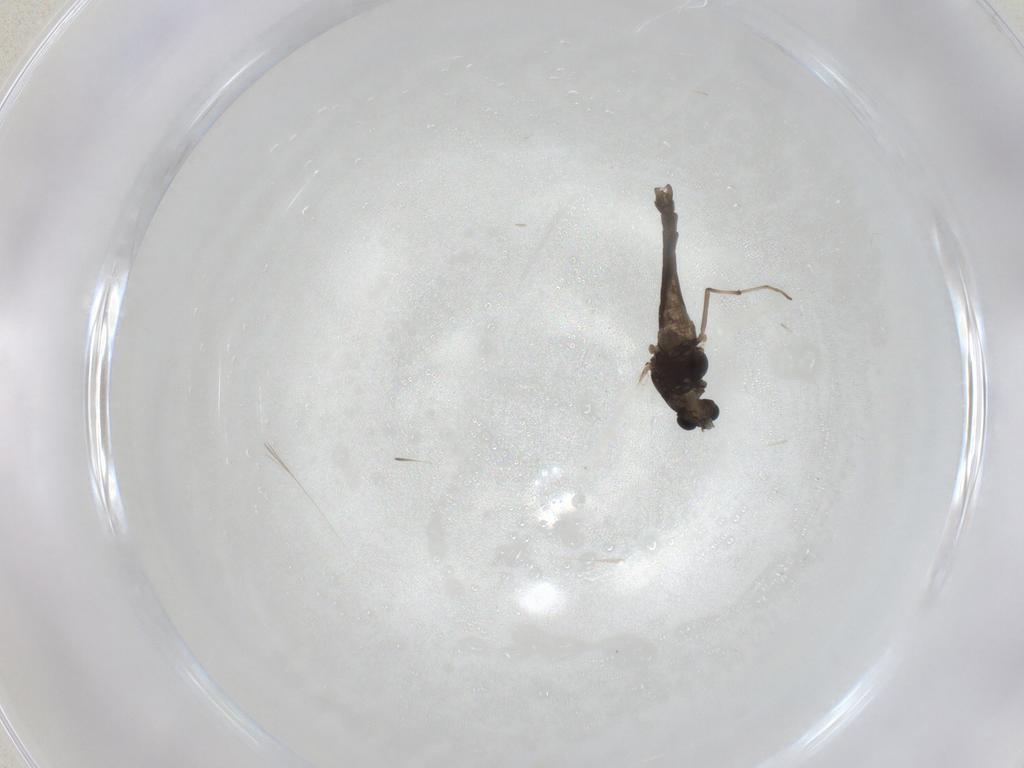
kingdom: Animalia
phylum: Arthropoda
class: Insecta
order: Diptera
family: Chironomidae
